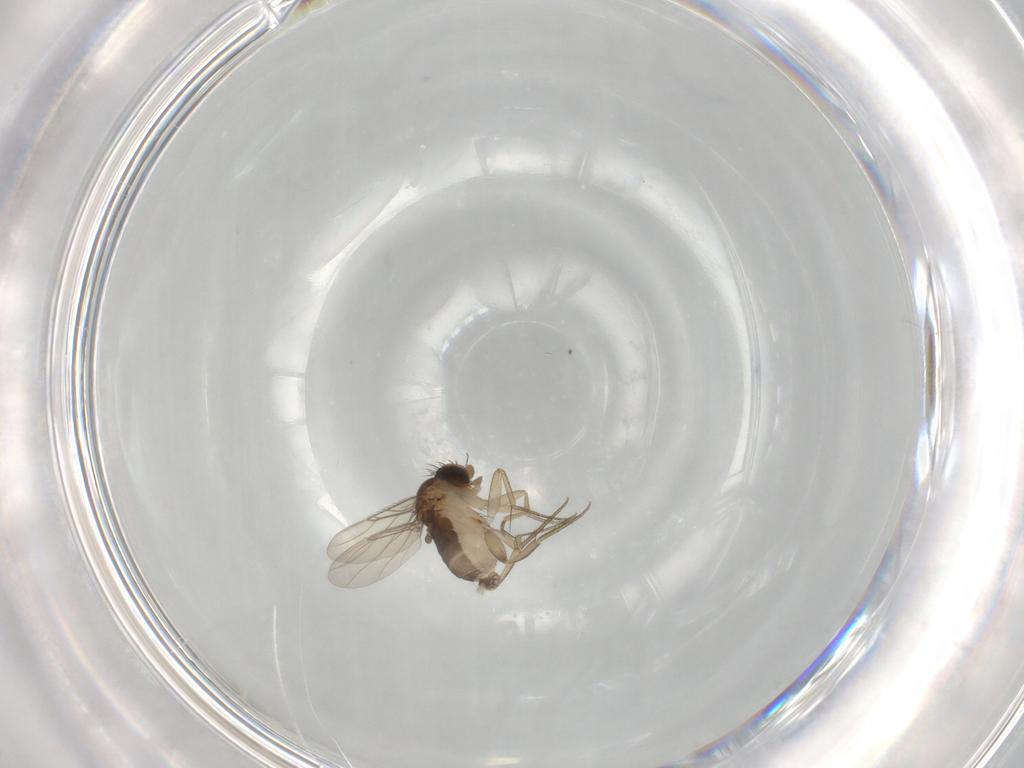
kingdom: Animalia
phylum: Arthropoda
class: Insecta
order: Diptera
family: Phoridae
